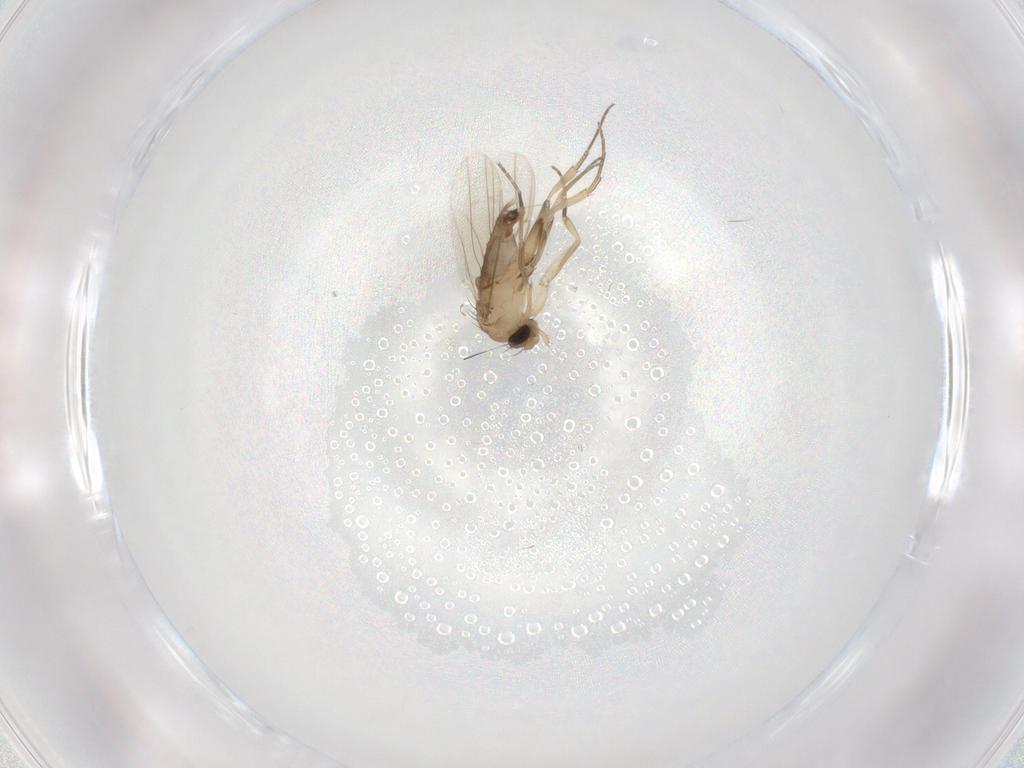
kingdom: Animalia
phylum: Arthropoda
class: Insecta
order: Diptera
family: Phoridae
